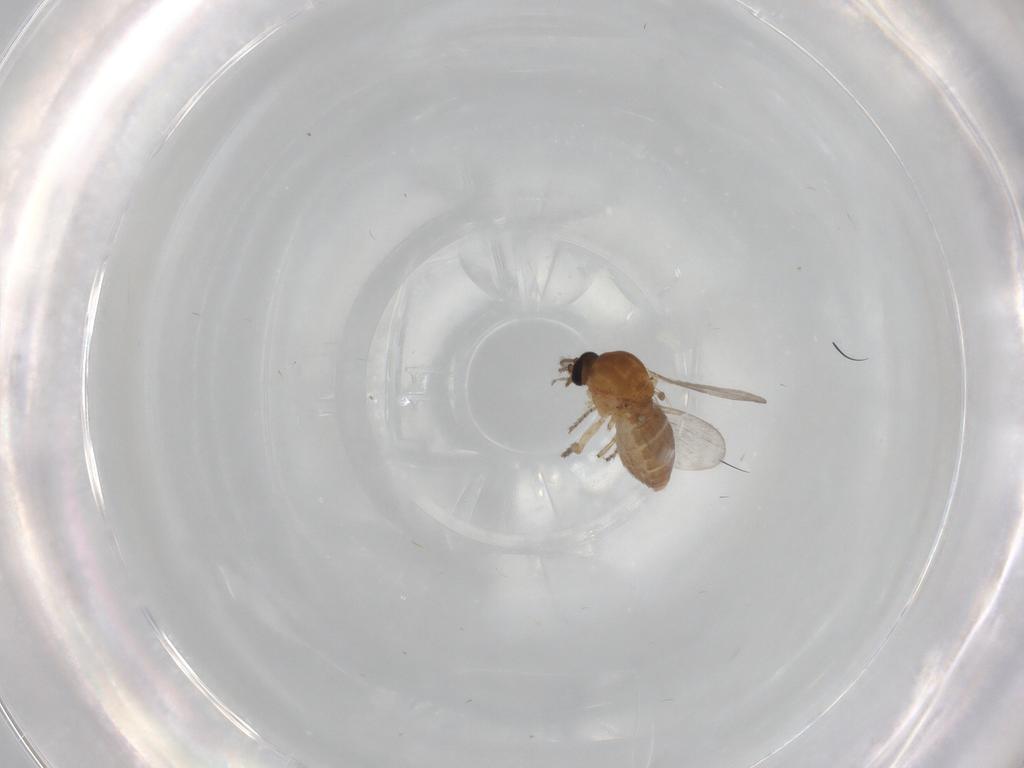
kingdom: Animalia
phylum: Arthropoda
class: Insecta
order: Diptera
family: Ceratopogonidae
